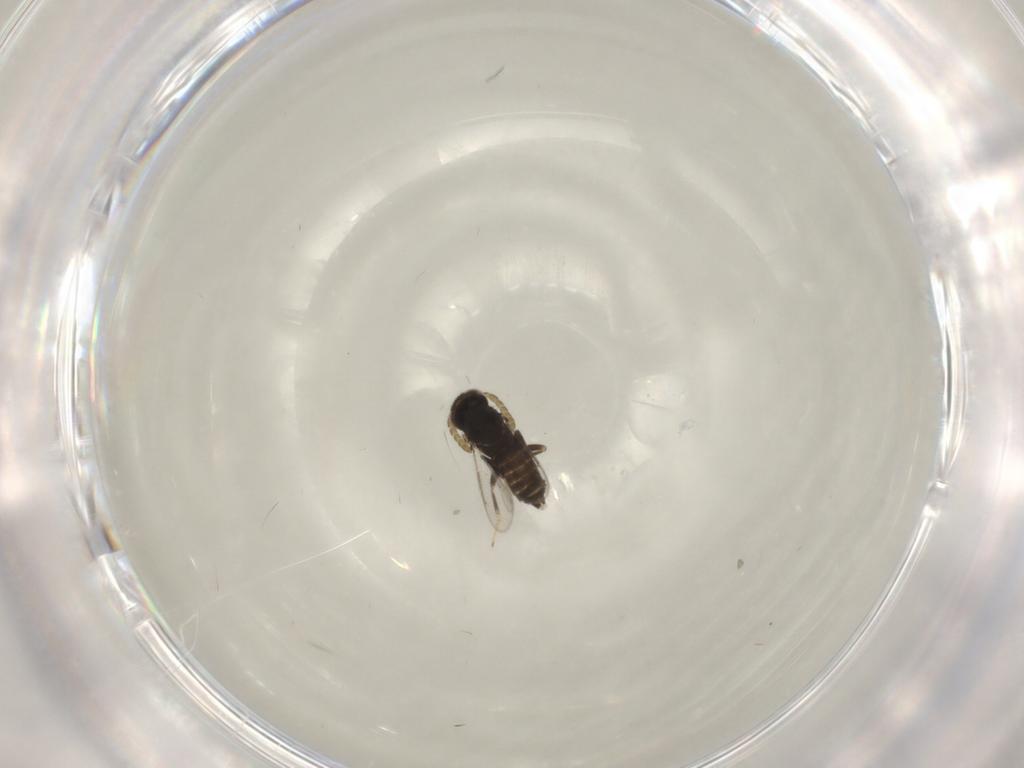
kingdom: Animalia
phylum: Arthropoda
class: Insecta
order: Hymenoptera
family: Aphelinidae
